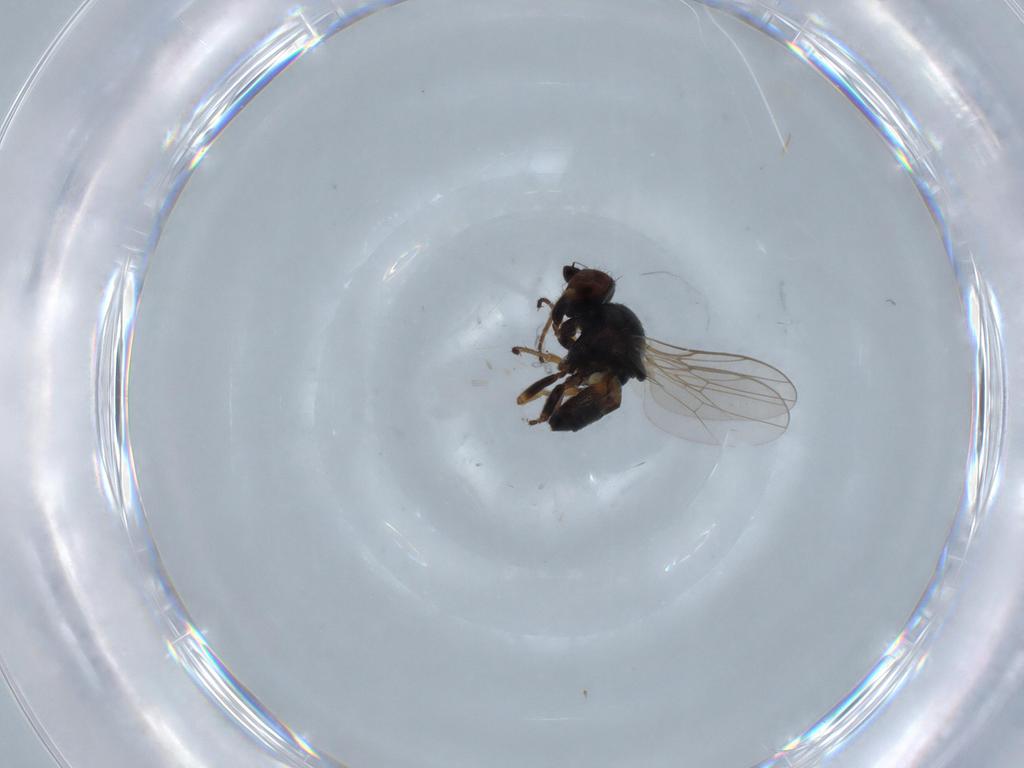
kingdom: Animalia
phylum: Arthropoda
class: Insecta
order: Diptera
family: Chloropidae
